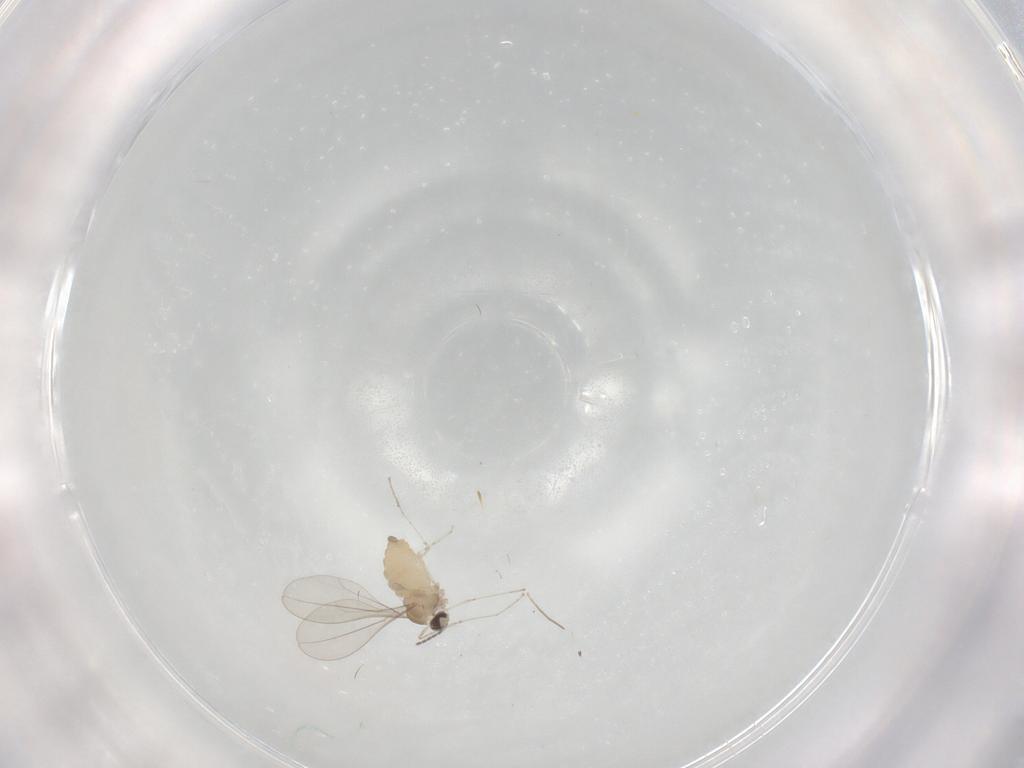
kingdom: Animalia
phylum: Arthropoda
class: Insecta
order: Diptera
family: Cecidomyiidae
